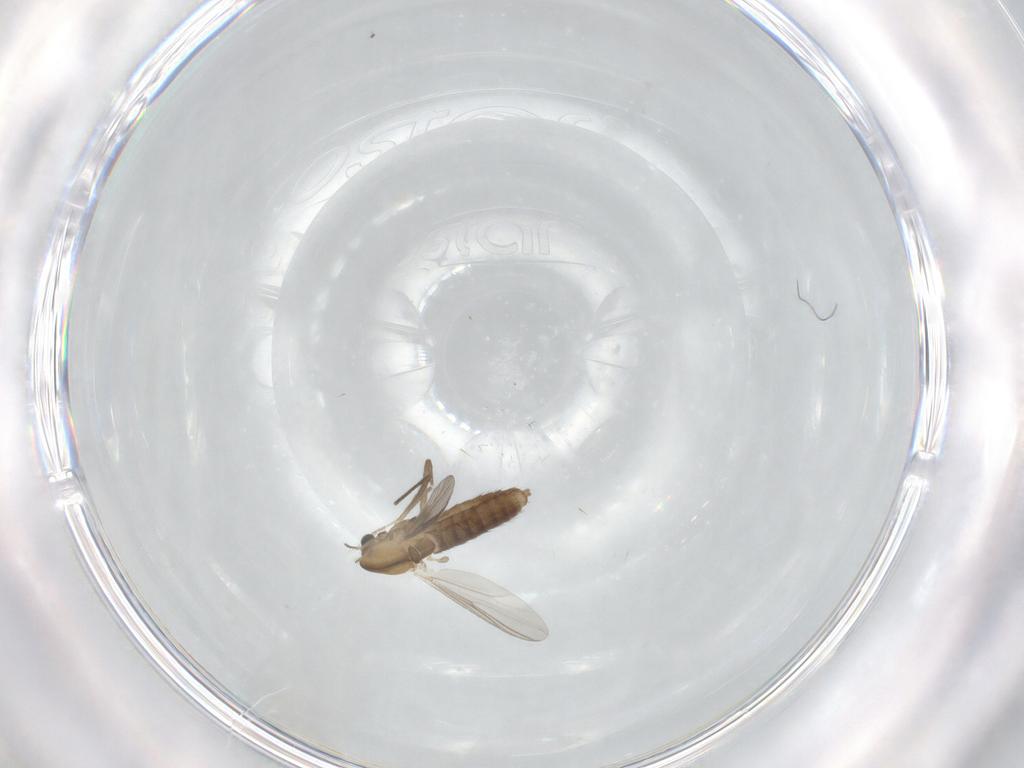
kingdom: Animalia
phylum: Arthropoda
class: Insecta
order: Diptera
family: Chironomidae
